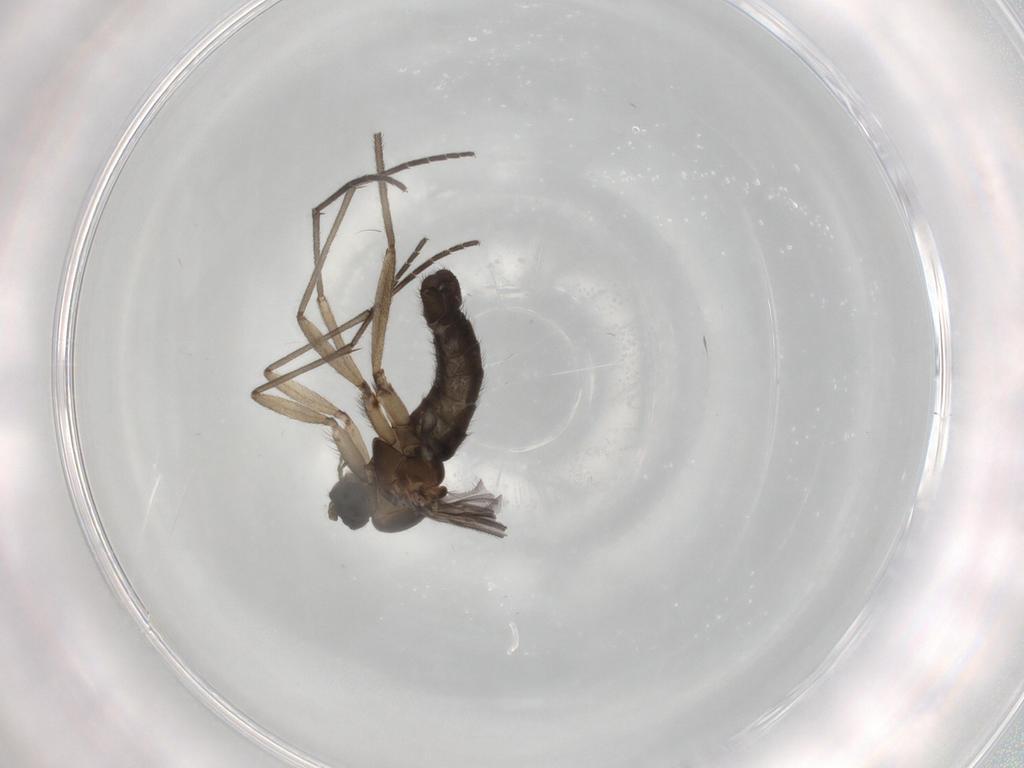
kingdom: Animalia
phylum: Arthropoda
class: Insecta
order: Diptera
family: Sciaridae
